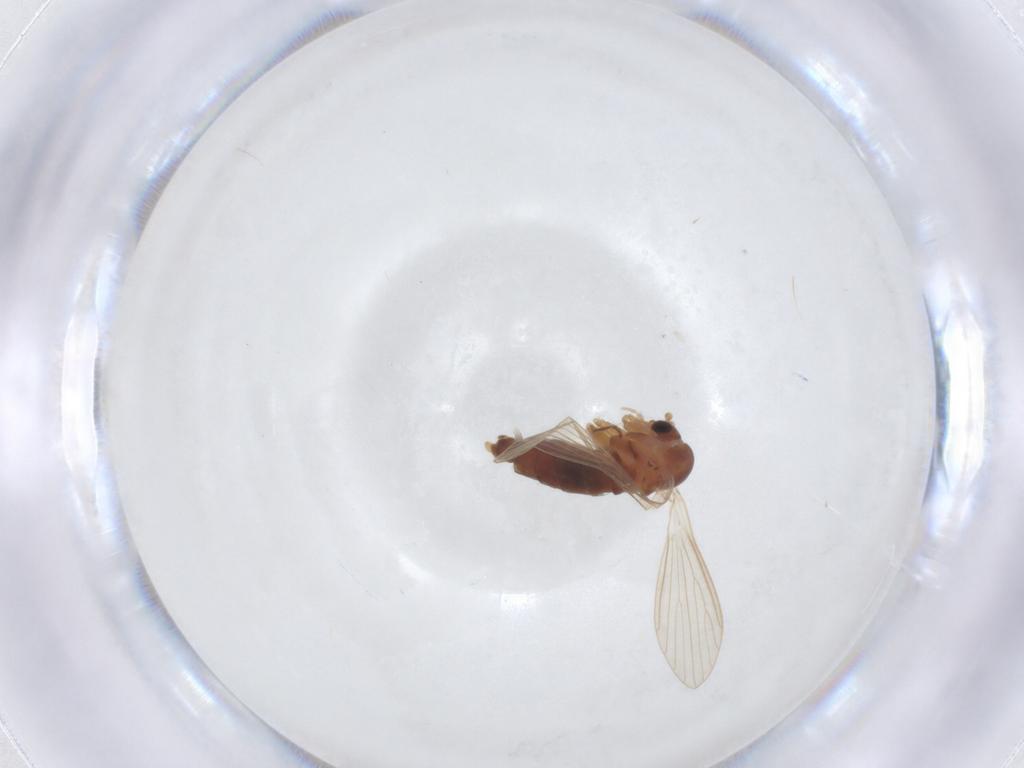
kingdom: Animalia
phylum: Arthropoda
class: Insecta
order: Diptera
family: Psychodidae
